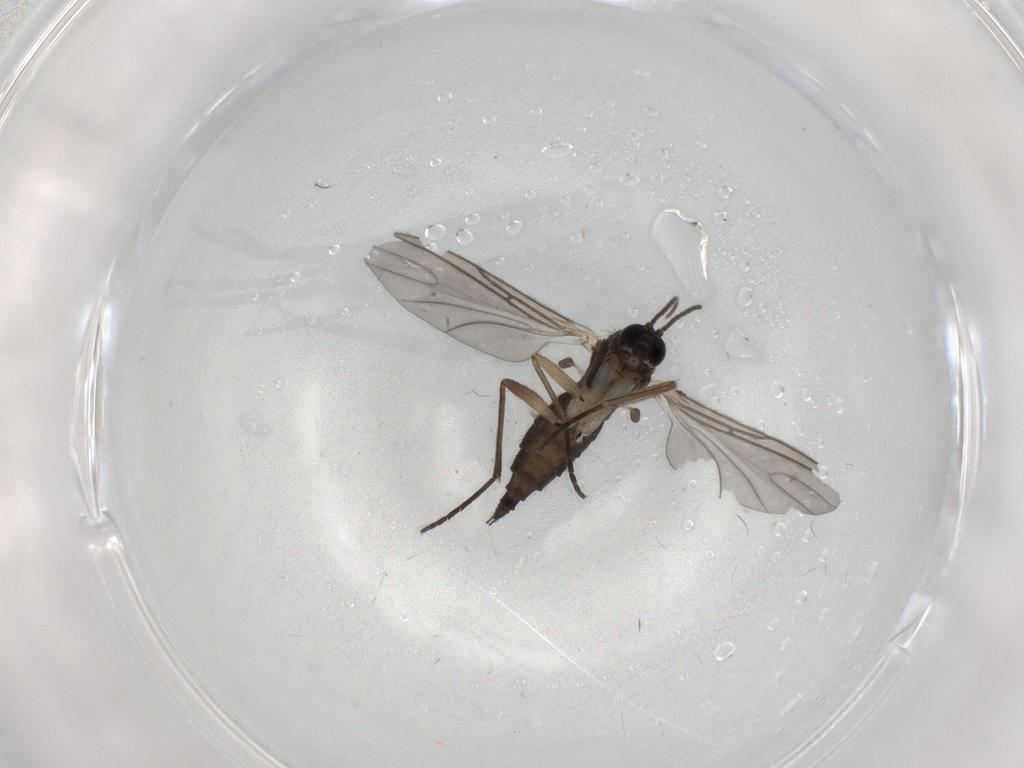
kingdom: Animalia
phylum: Arthropoda
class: Insecta
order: Diptera
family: Sciaridae
